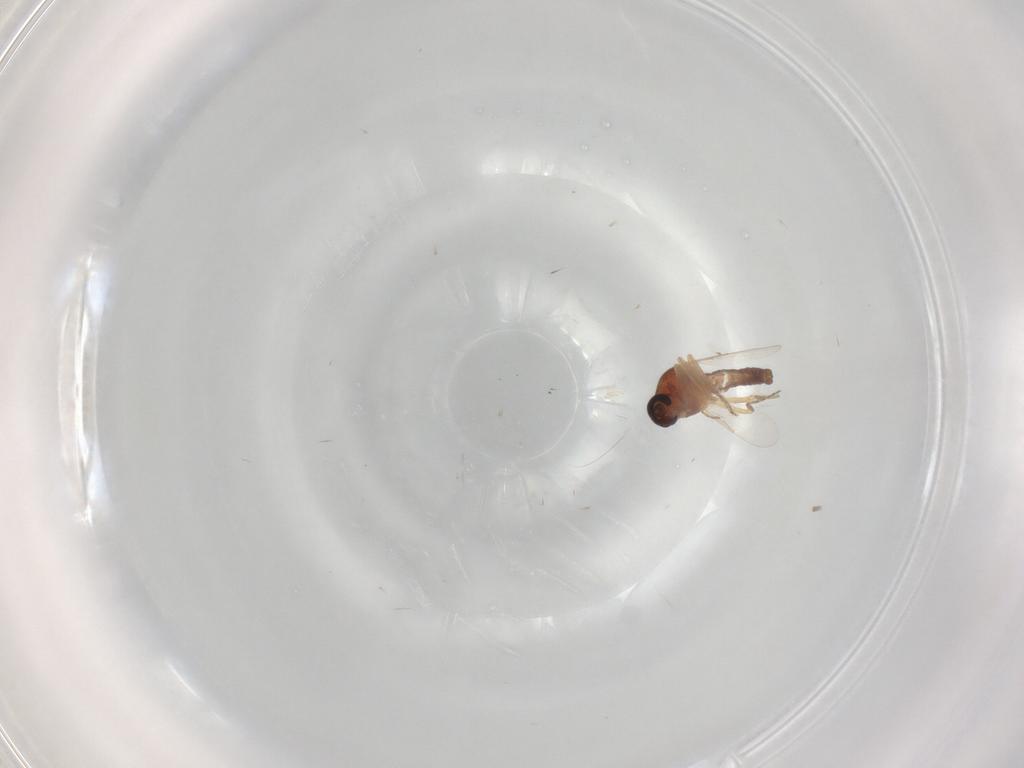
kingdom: Animalia
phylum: Arthropoda
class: Insecta
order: Diptera
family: Ceratopogonidae
